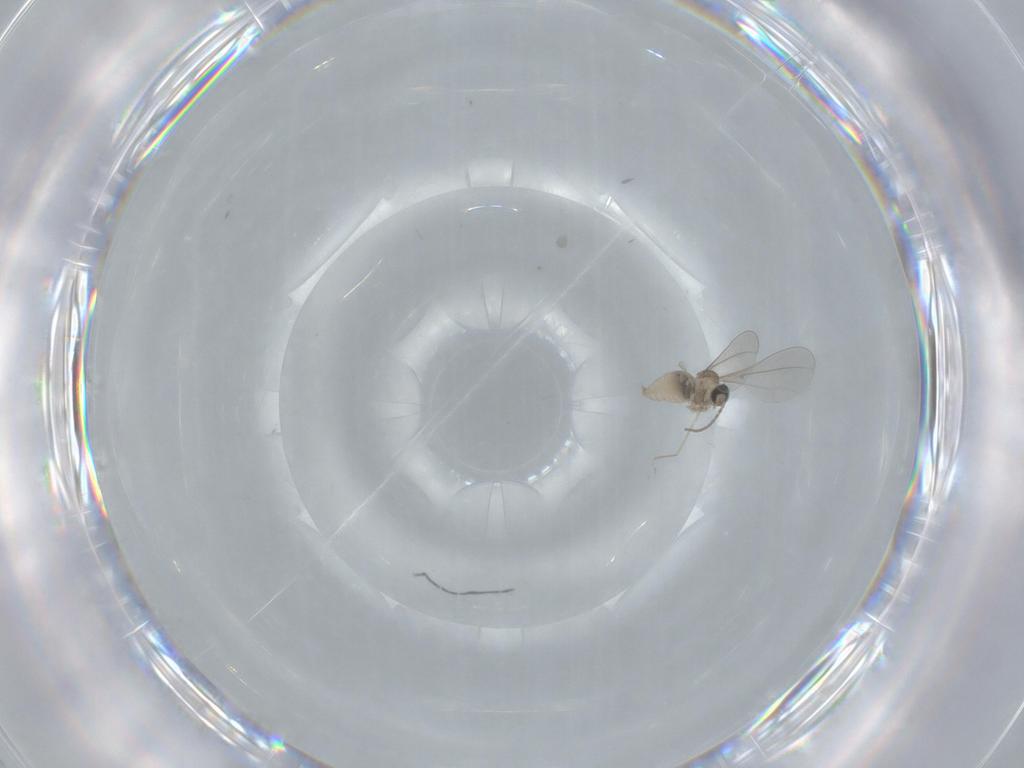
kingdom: Animalia
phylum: Arthropoda
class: Insecta
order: Diptera
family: Cecidomyiidae
